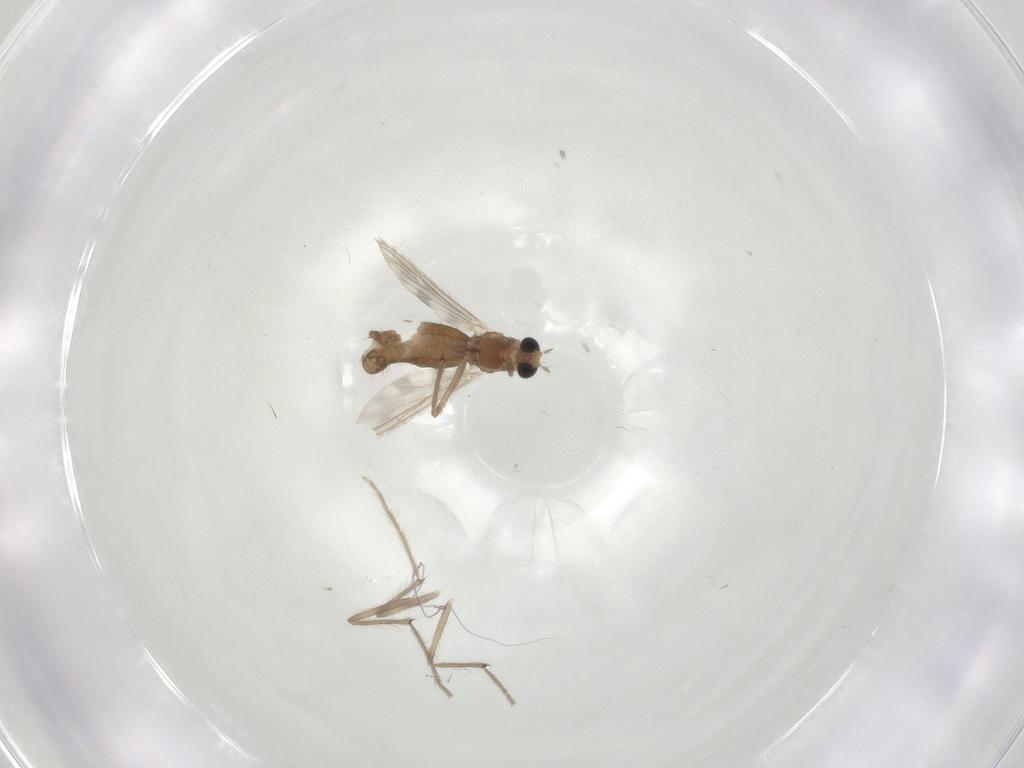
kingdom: Animalia
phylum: Arthropoda
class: Insecta
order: Diptera
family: Chironomidae
